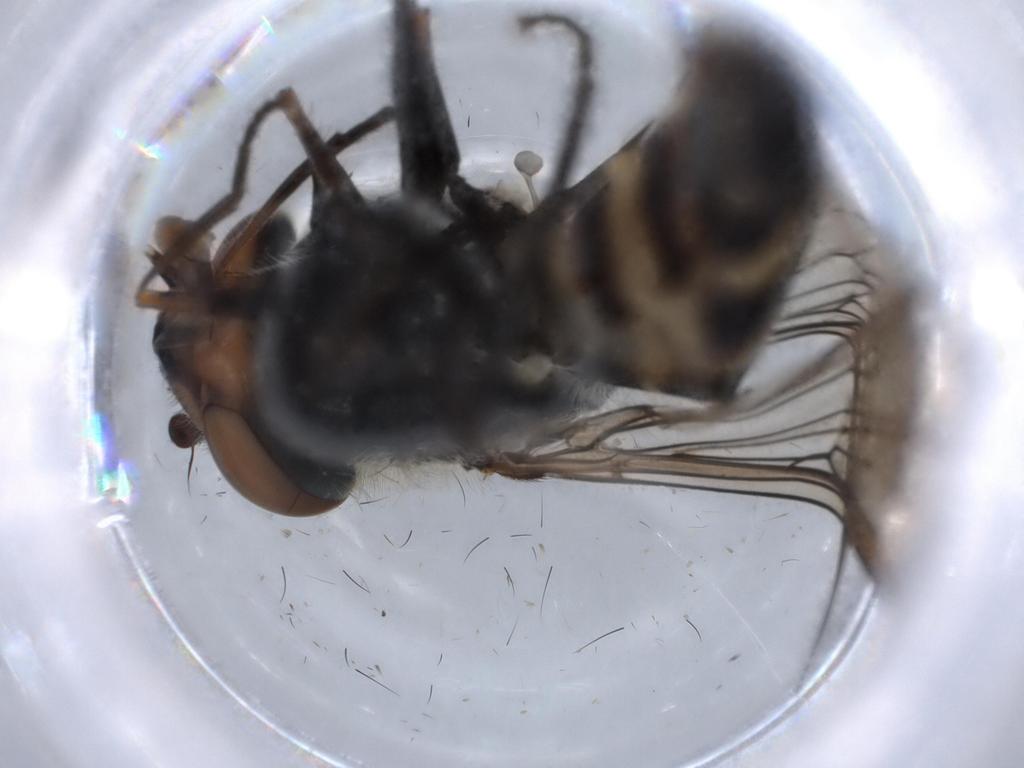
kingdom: Animalia
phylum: Arthropoda
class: Insecta
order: Diptera
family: Syrphidae
